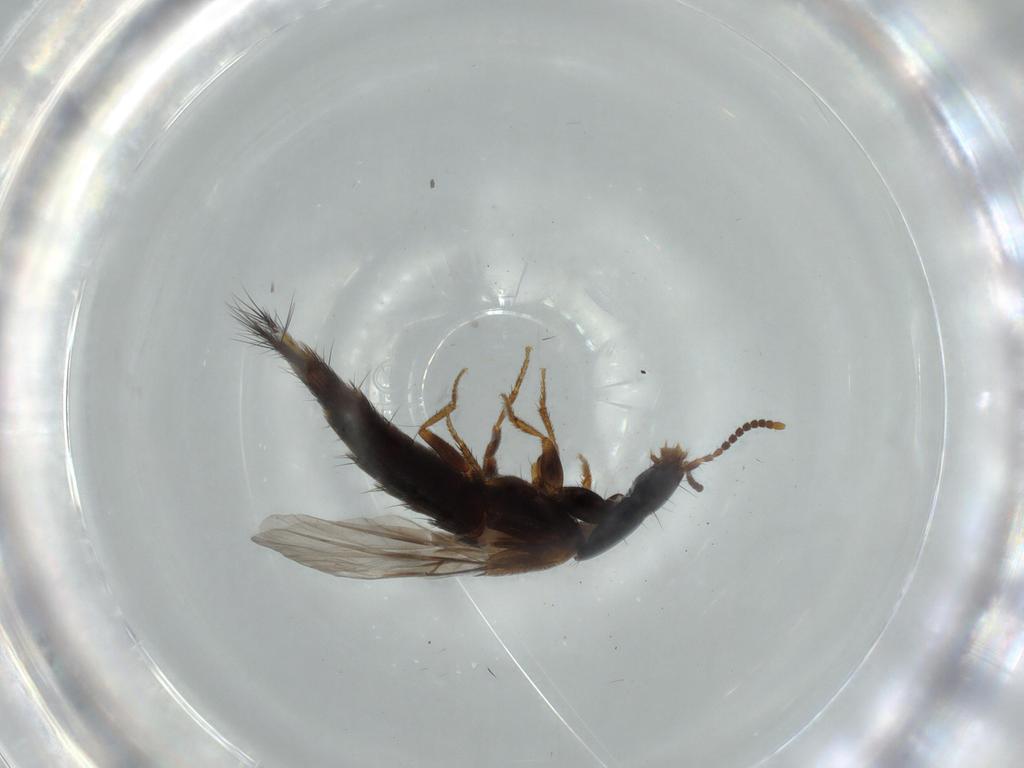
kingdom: Animalia
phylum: Arthropoda
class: Insecta
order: Coleoptera
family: Staphylinidae
